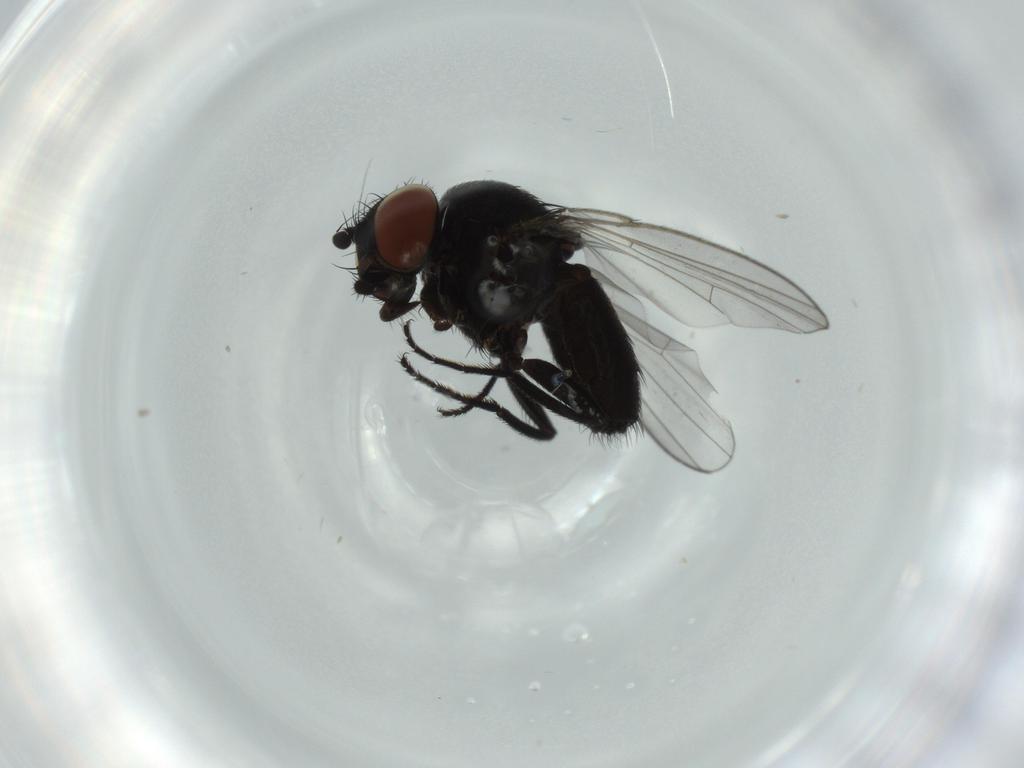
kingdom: Animalia
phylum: Arthropoda
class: Insecta
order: Diptera
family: Milichiidae
